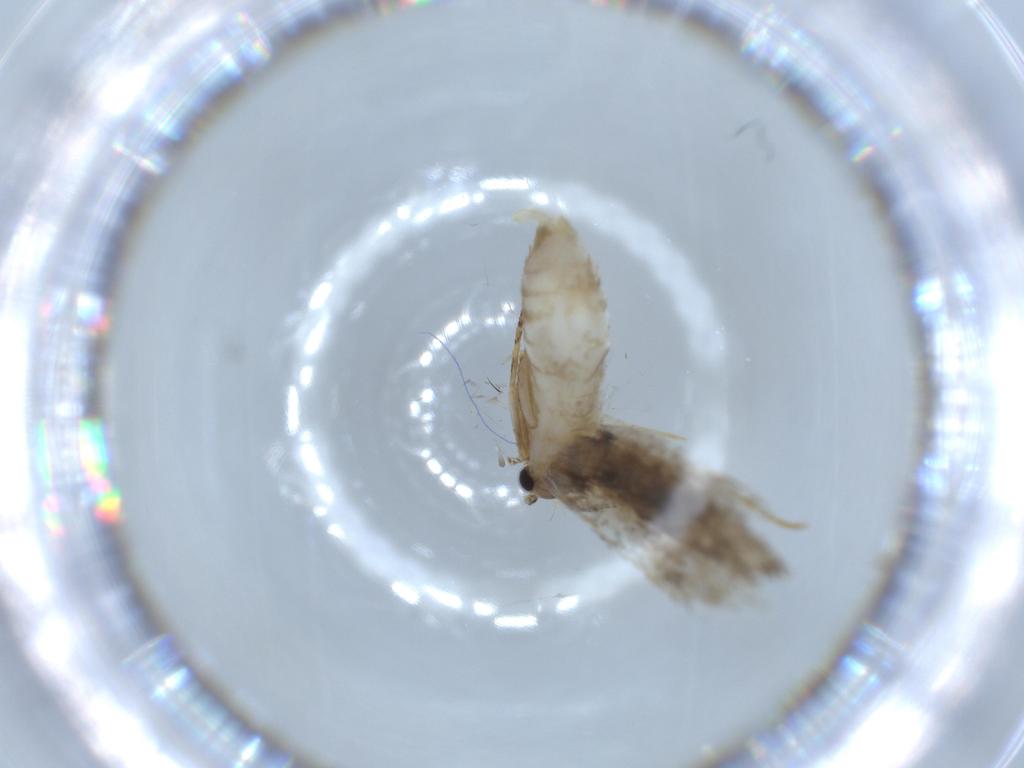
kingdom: Animalia
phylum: Arthropoda
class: Insecta
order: Lepidoptera
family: Tineidae
